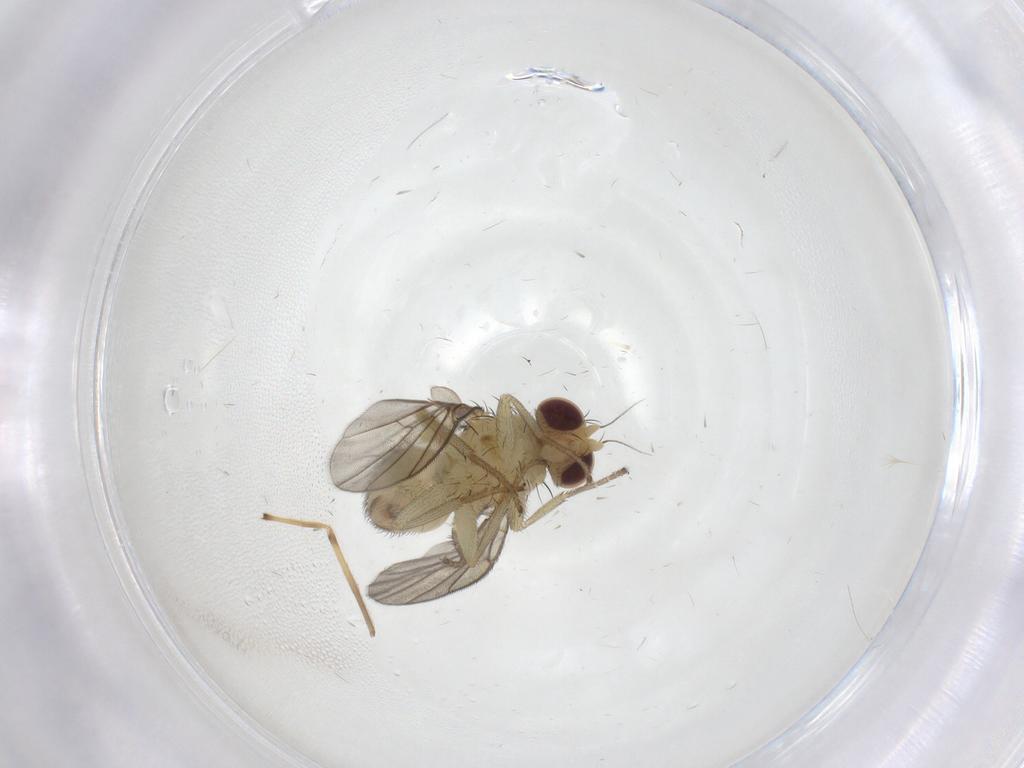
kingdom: Animalia
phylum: Arthropoda
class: Insecta
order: Diptera
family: Agromyzidae
